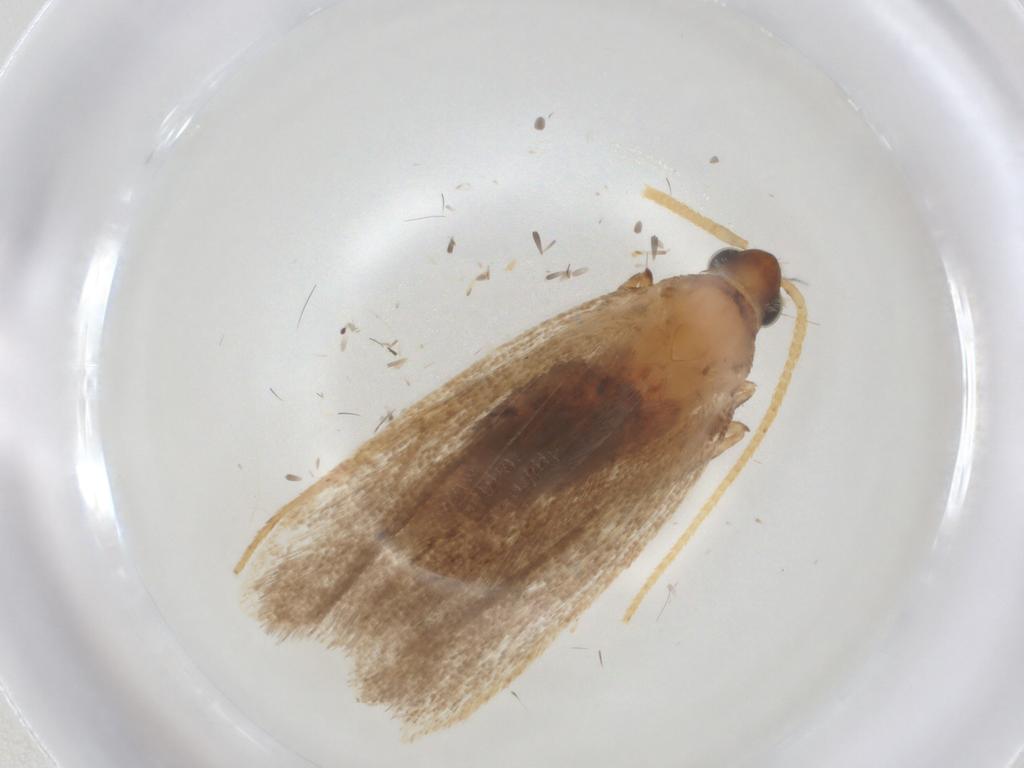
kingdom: Animalia
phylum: Arthropoda
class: Insecta
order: Lepidoptera
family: Lecithoceridae
